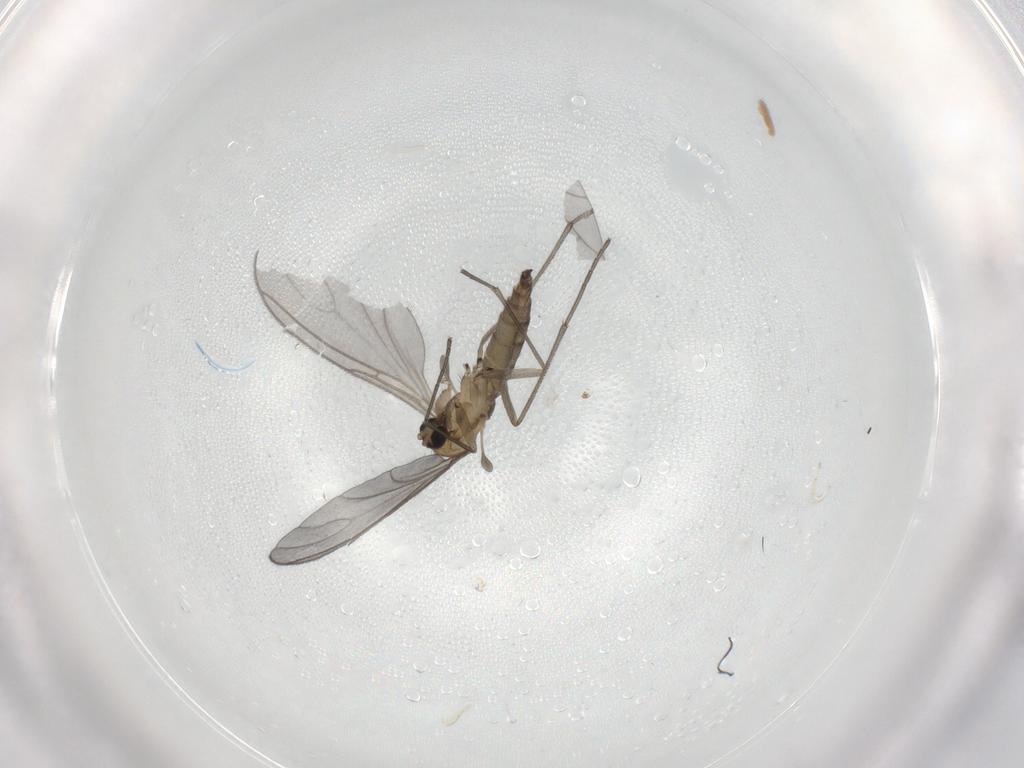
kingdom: Animalia
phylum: Arthropoda
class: Insecta
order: Diptera
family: Sciaridae
